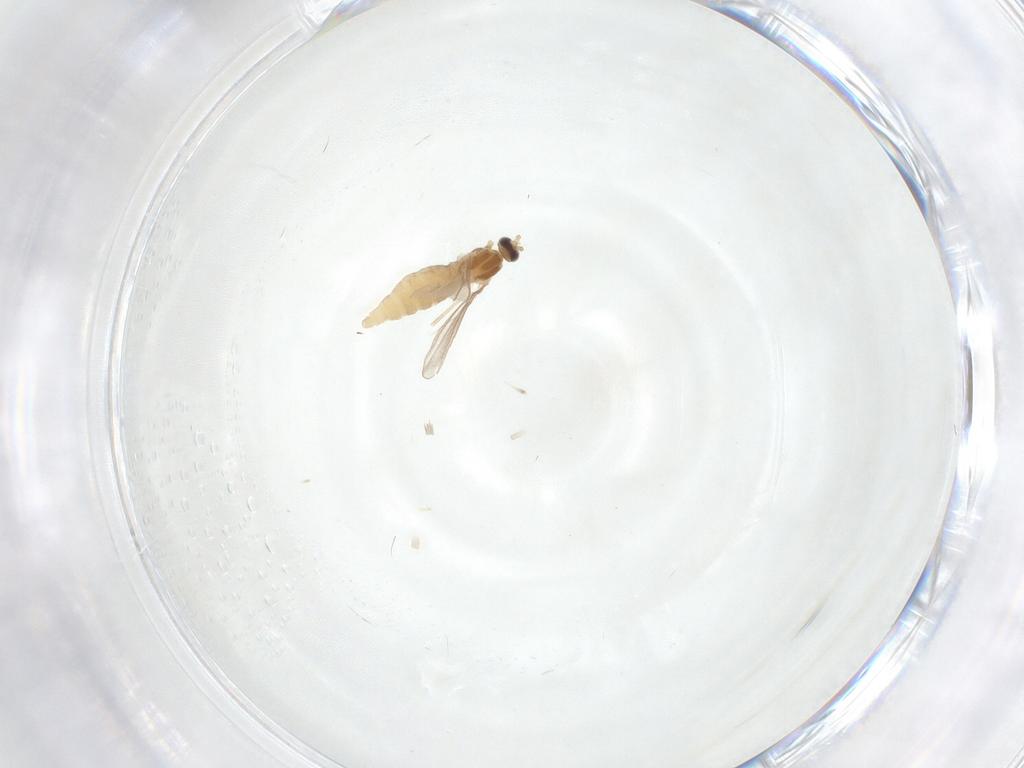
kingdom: Animalia
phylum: Arthropoda
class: Insecta
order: Diptera
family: Cecidomyiidae
